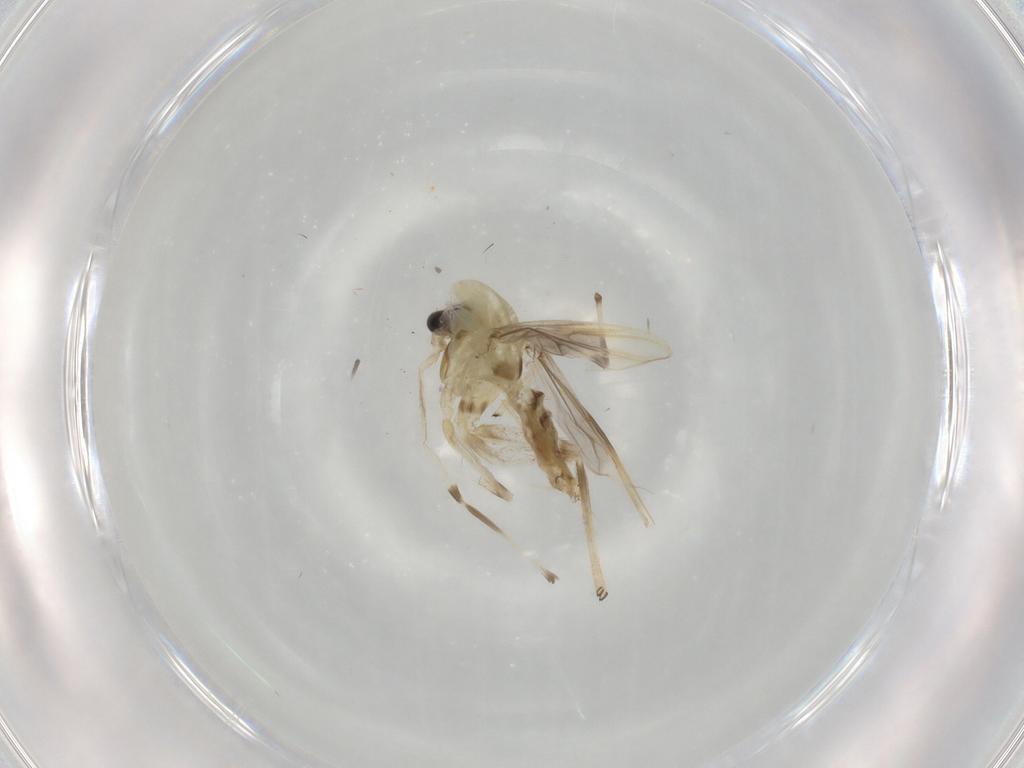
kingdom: Animalia
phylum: Arthropoda
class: Insecta
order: Diptera
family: Chironomidae
